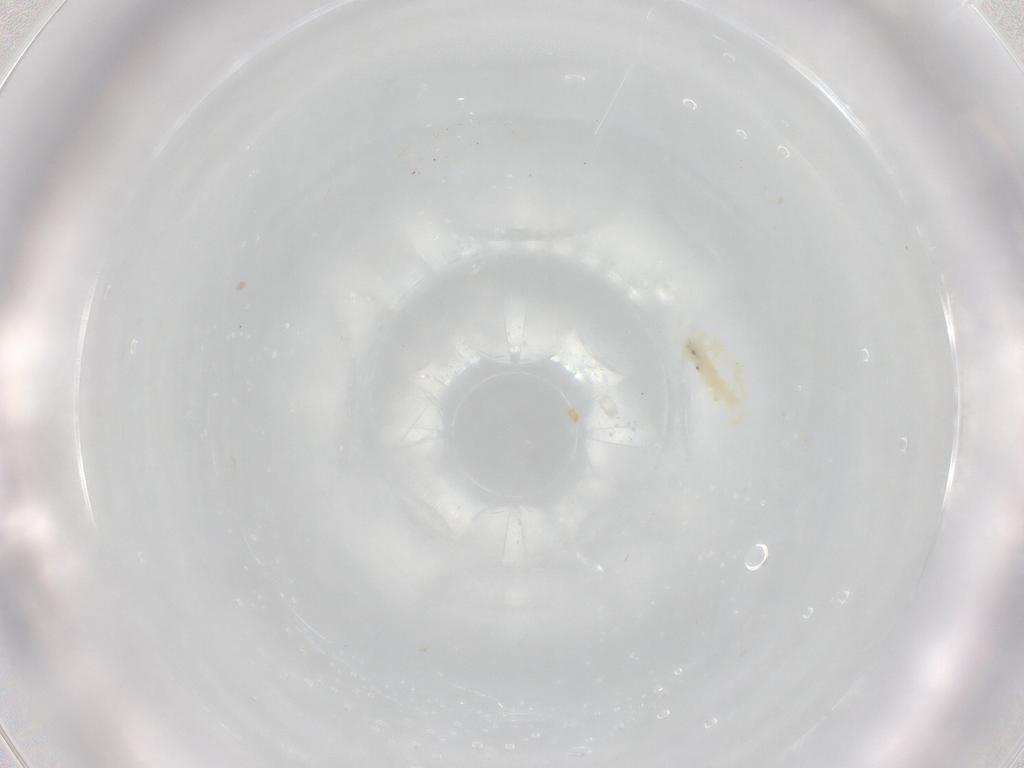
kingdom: Animalia
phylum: Arthropoda
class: Insecta
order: Diptera
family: Chironomidae
